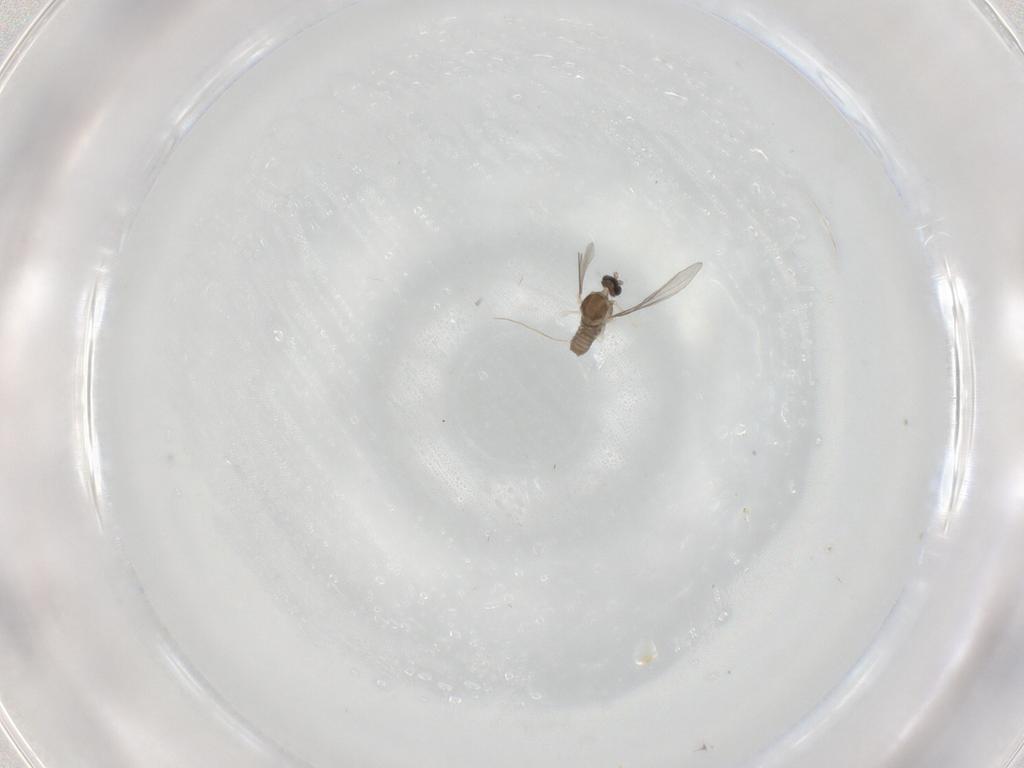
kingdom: Animalia
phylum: Arthropoda
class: Insecta
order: Diptera
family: Cecidomyiidae
